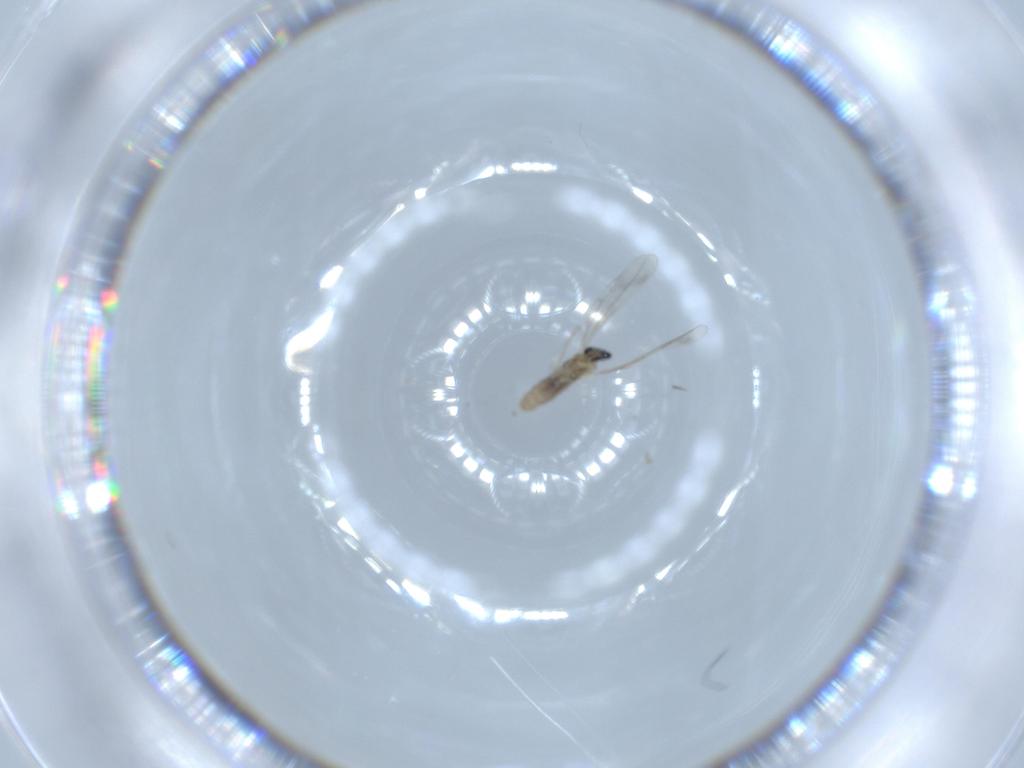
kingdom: Animalia
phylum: Arthropoda
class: Insecta
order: Diptera
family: Cecidomyiidae
